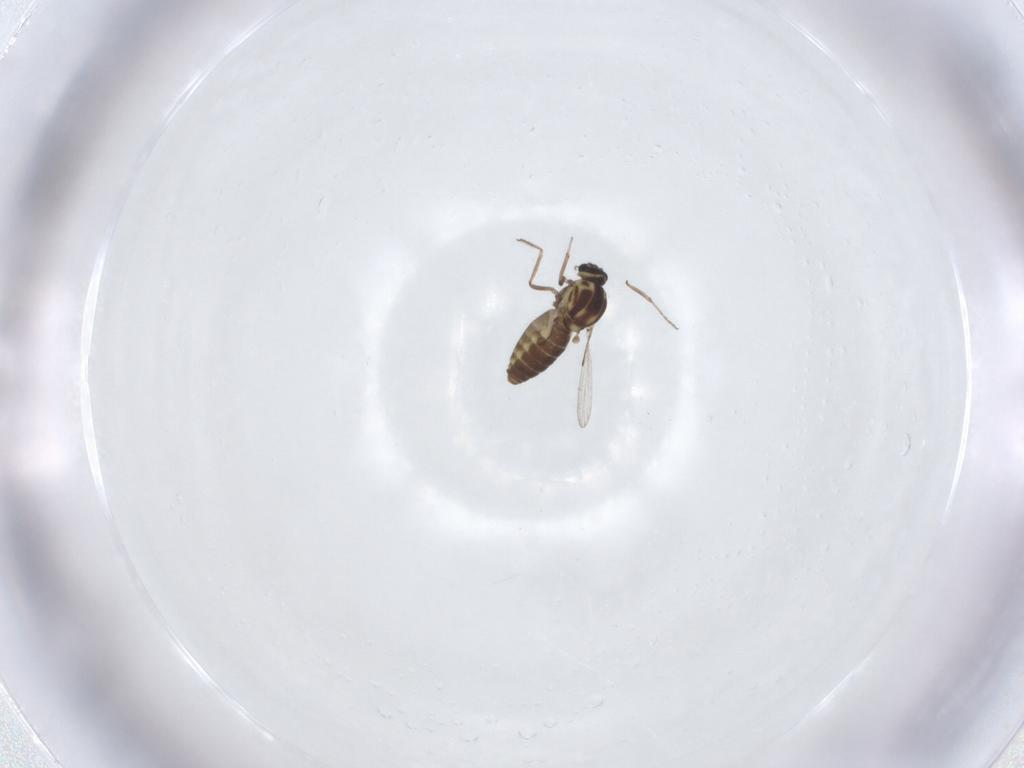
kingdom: Animalia
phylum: Arthropoda
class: Insecta
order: Diptera
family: Ceratopogonidae
